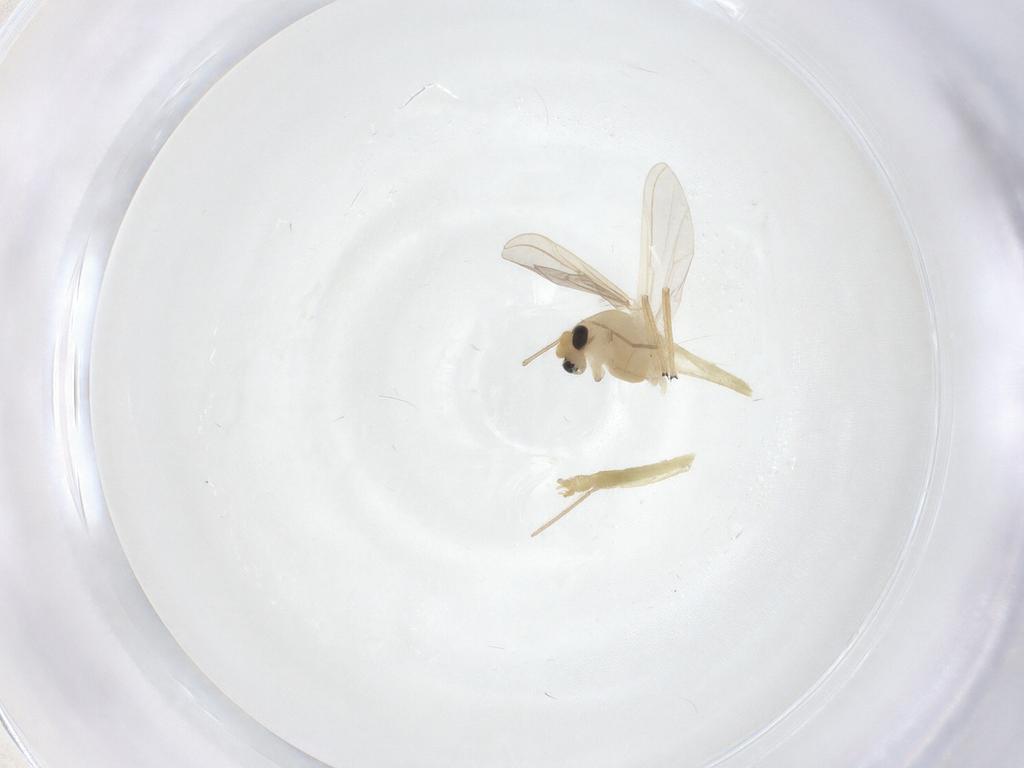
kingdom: Animalia
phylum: Arthropoda
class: Insecta
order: Diptera
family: Chironomidae
